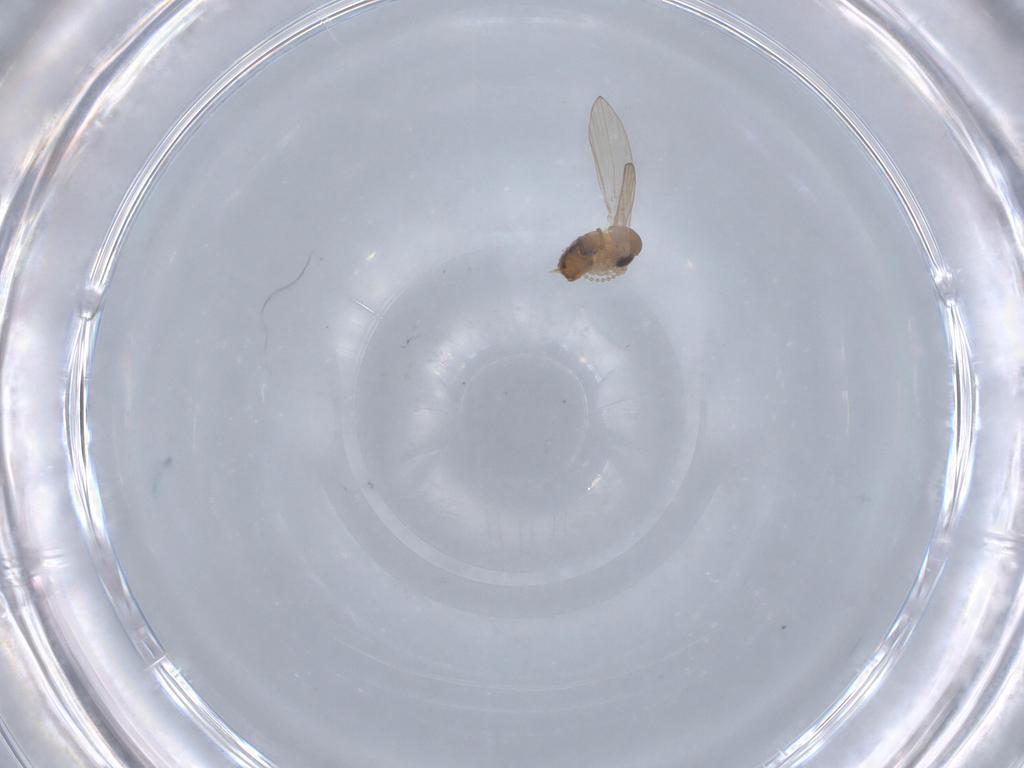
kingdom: Animalia
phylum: Arthropoda
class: Insecta
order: Diptera
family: Psychodidae
